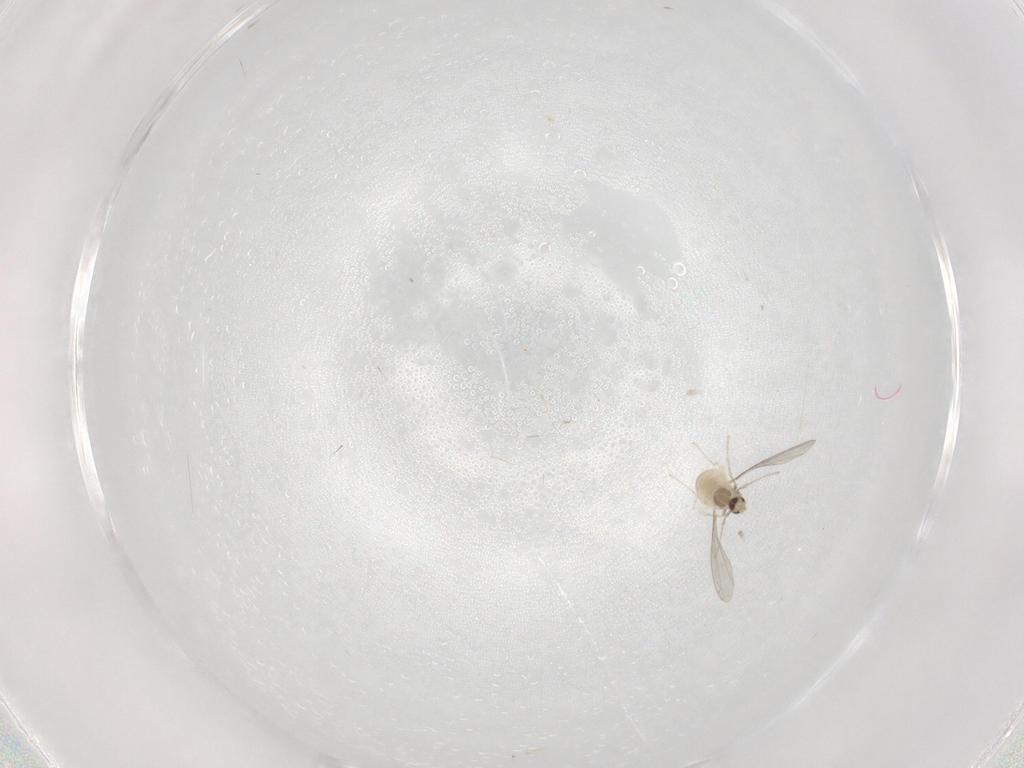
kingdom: Animalia
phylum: Arthropoda
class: Insecta
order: Diptera
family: Cecidomyiidae
